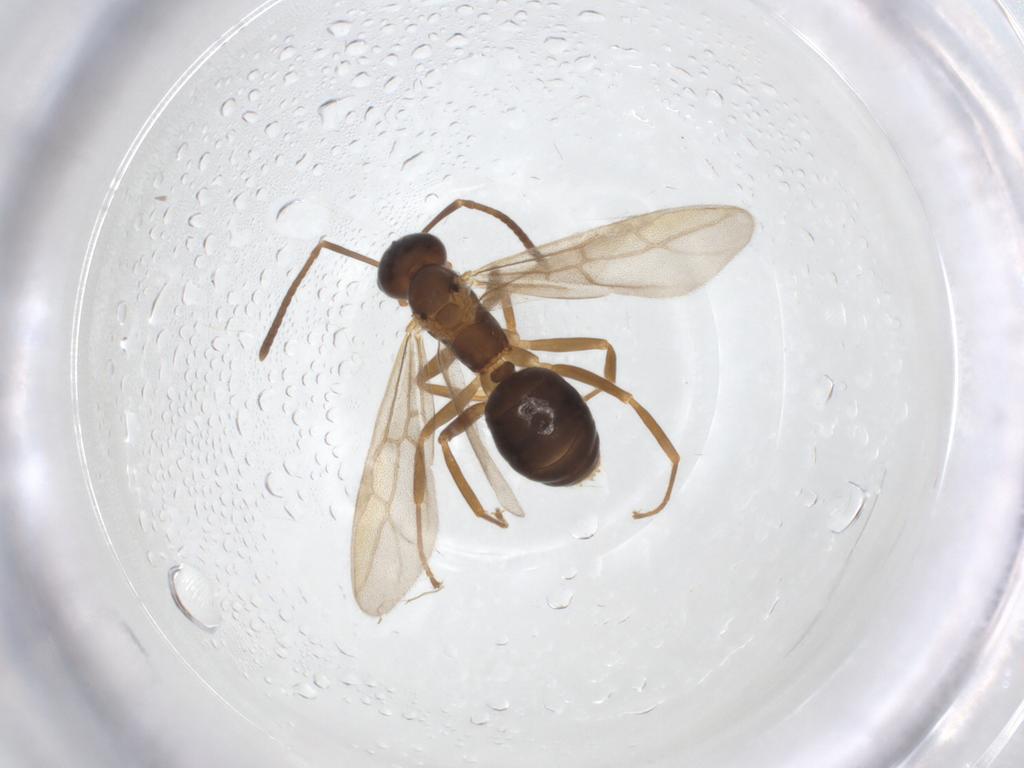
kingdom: Animalia
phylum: Arthropoda
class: Insecta
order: Hymenoptera
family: Formicidae
